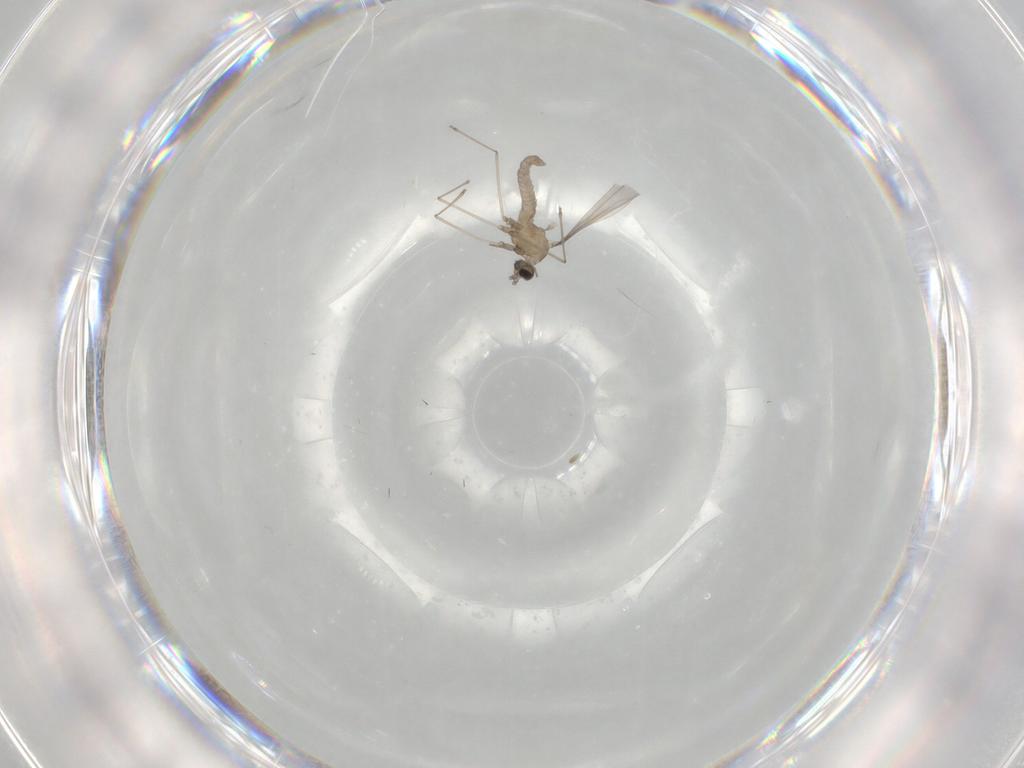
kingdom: Animalia
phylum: Arthropoda
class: Insecta
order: Diptera
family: Cecidomyiidae
